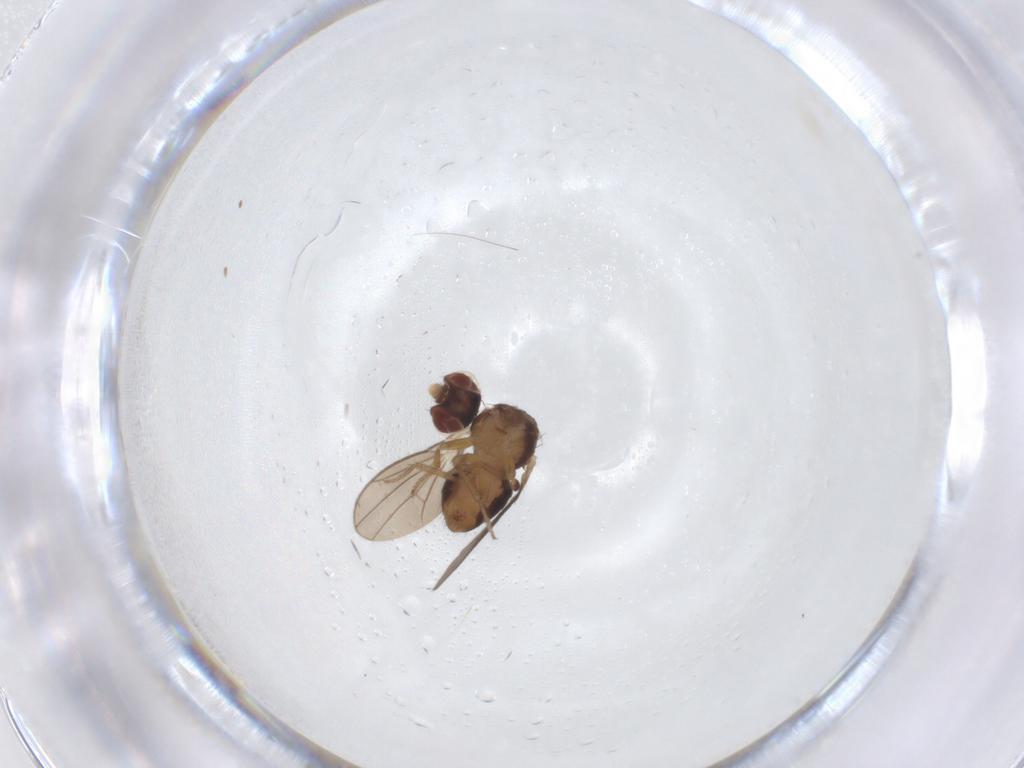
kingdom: Animalia
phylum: Arthropoda
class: Insecta
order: Diptera
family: Drosophilidae
